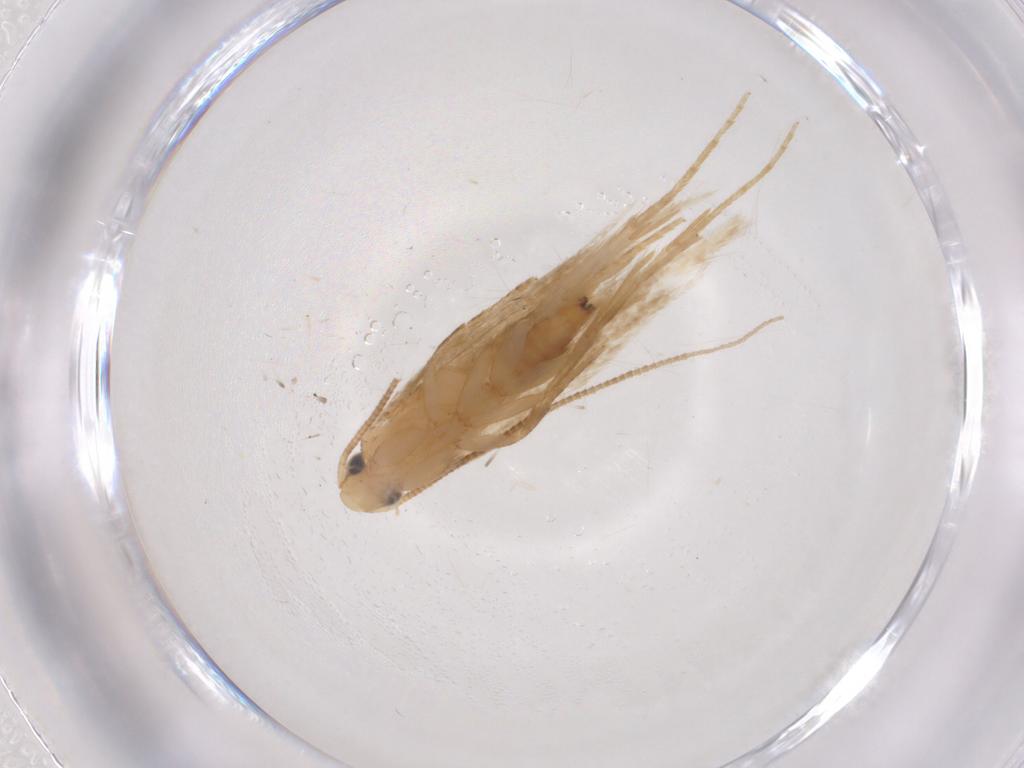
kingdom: Animalia
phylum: Arthropoda
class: Insecta
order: Lepidoptera
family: Tineidae
